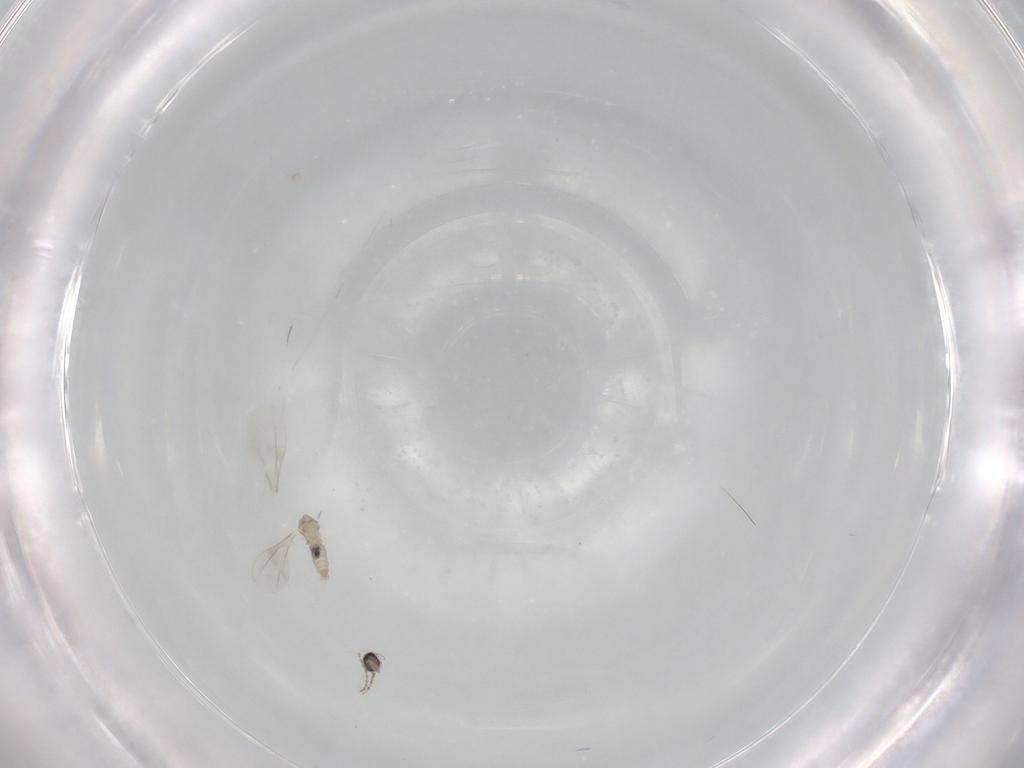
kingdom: Animalia
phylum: Arthropoda
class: Insecta
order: Diptera
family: Cecidomyiidae
